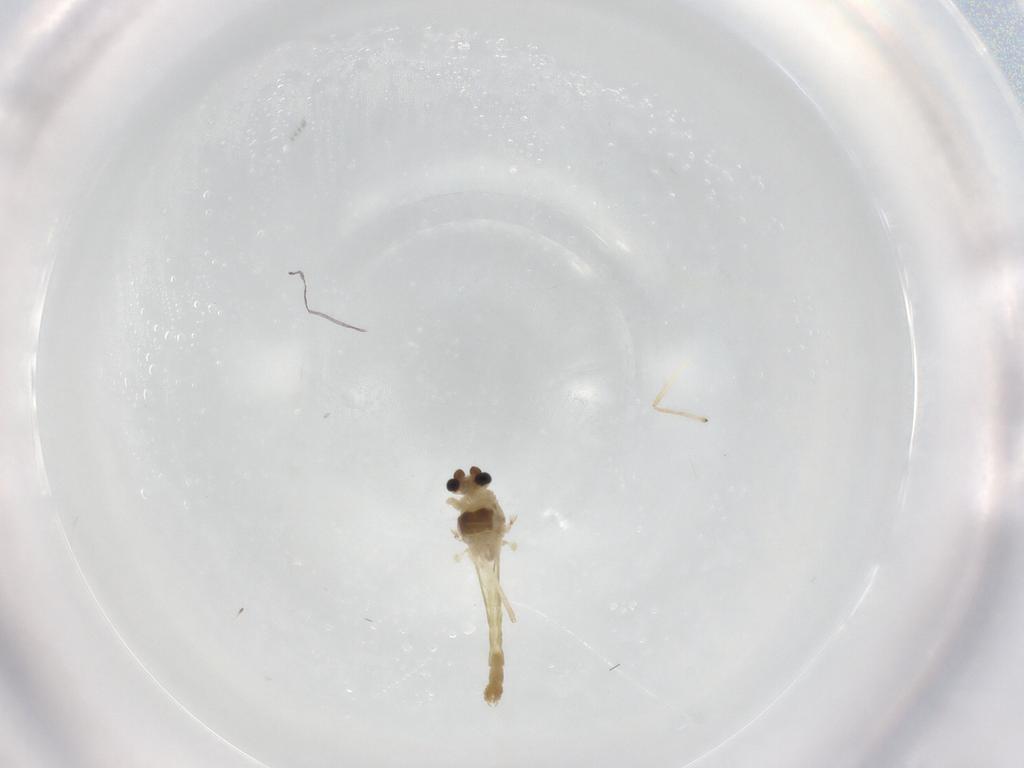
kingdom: Animalia
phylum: Arthropoda
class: Insecta
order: Diptera
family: Chironomidae
